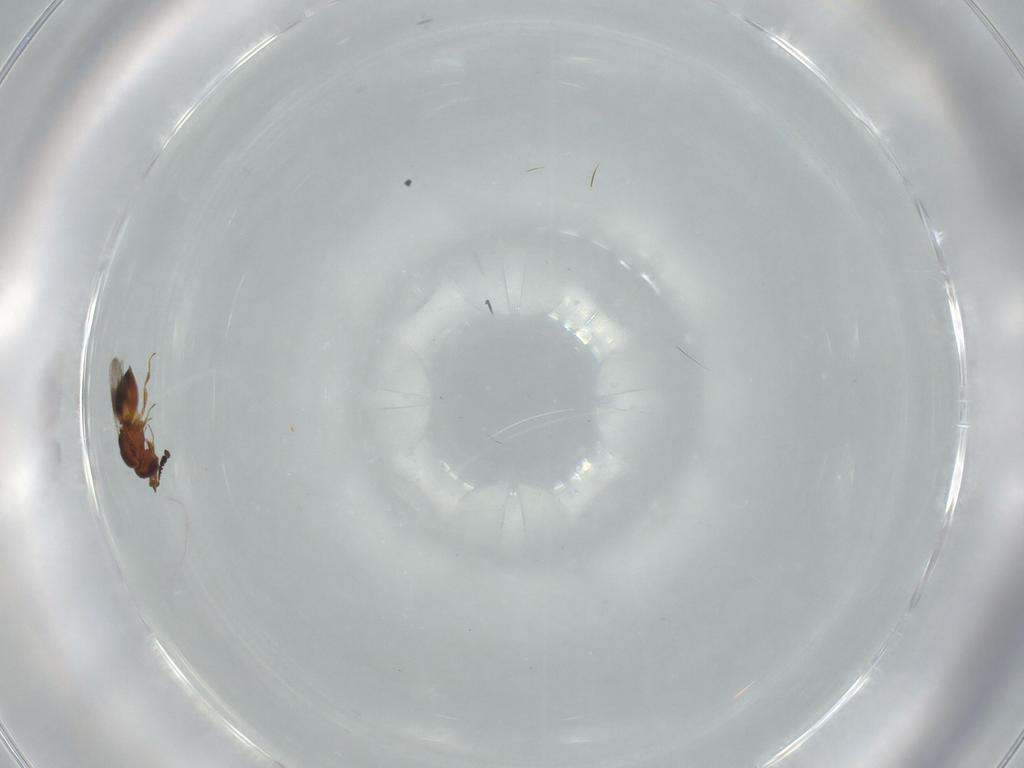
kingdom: Animalia
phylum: Arthropoda
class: Insecta
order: Hymenoptera
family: Ceraphronidae
